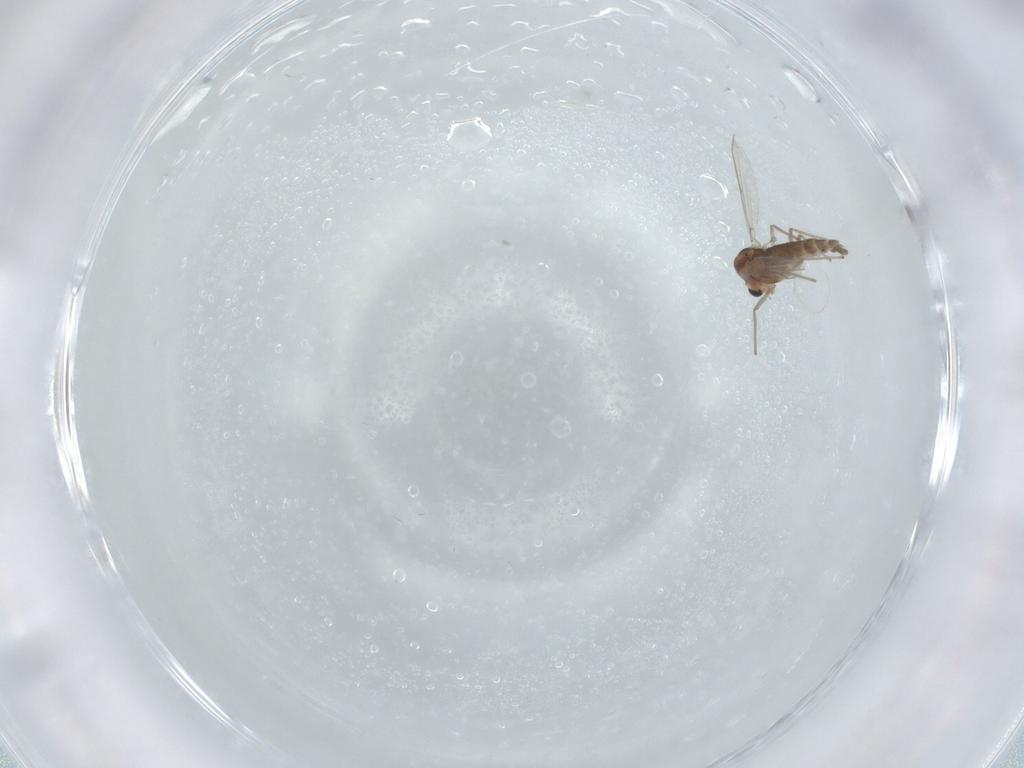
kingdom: Animalia
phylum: Arthropoda
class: Insecta
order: Diptera
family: Chironomidae
